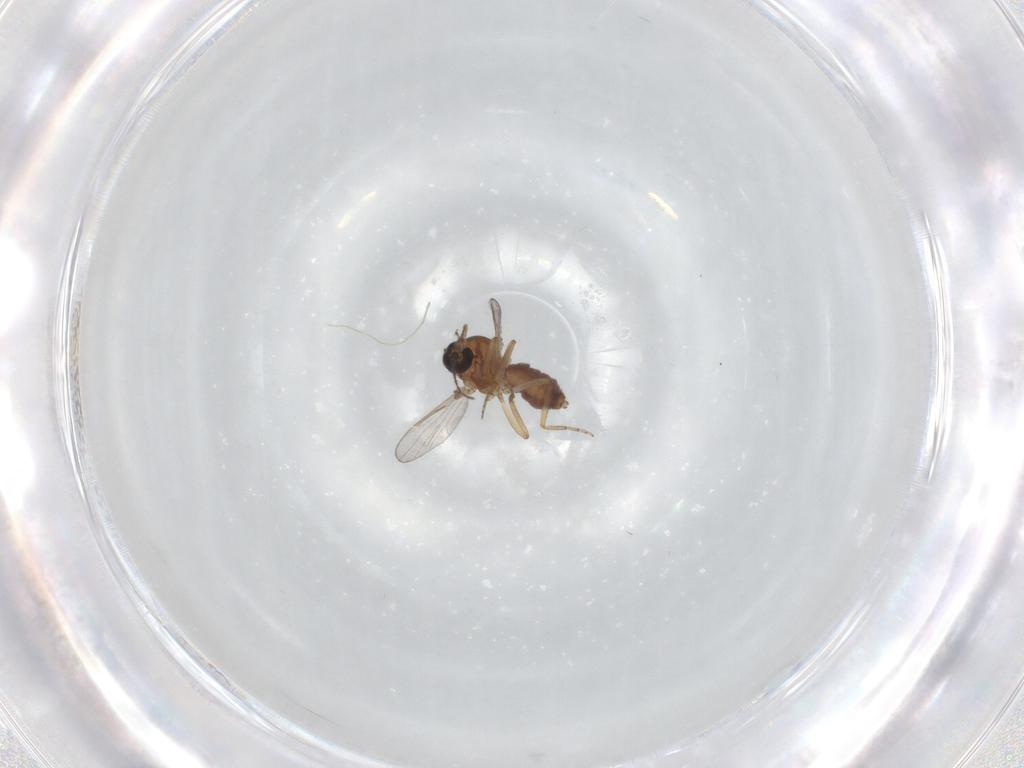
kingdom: Animalia
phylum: Arthropoda
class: Insecta
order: Diptera
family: Ceratopogonidae
